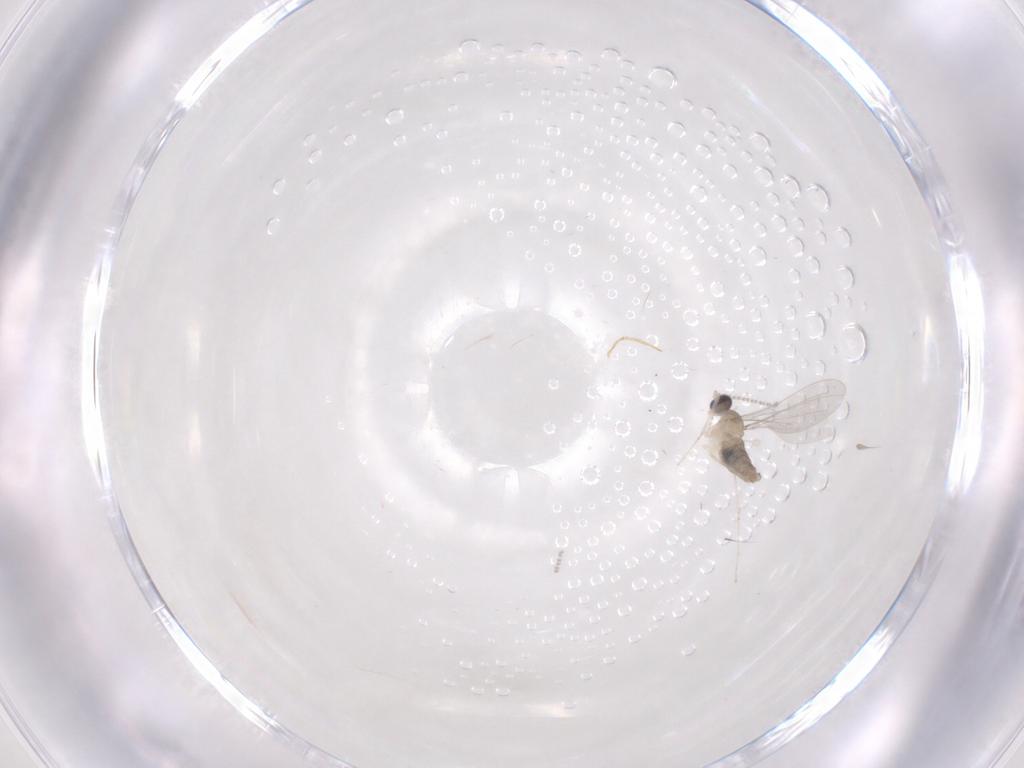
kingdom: Animalia
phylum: Arthropoda
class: Insecta
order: Diptera
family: Cecidomyiidae
